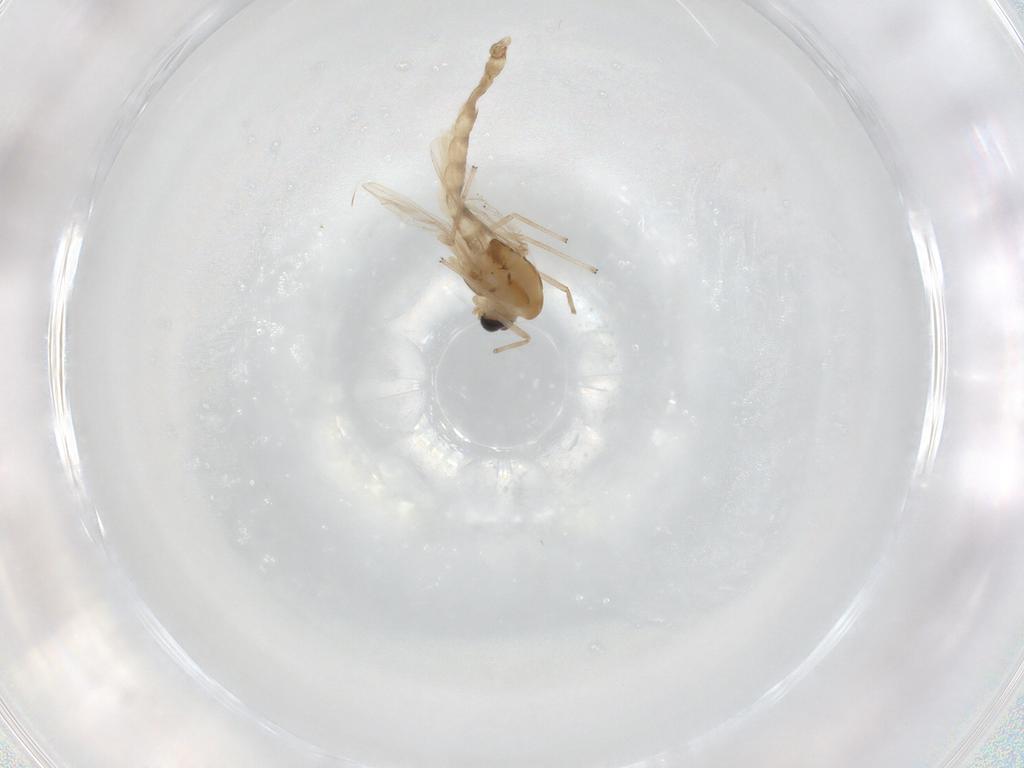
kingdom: Animalia
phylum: Arthropoda
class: Insecta
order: Diptera
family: Chironomidae
